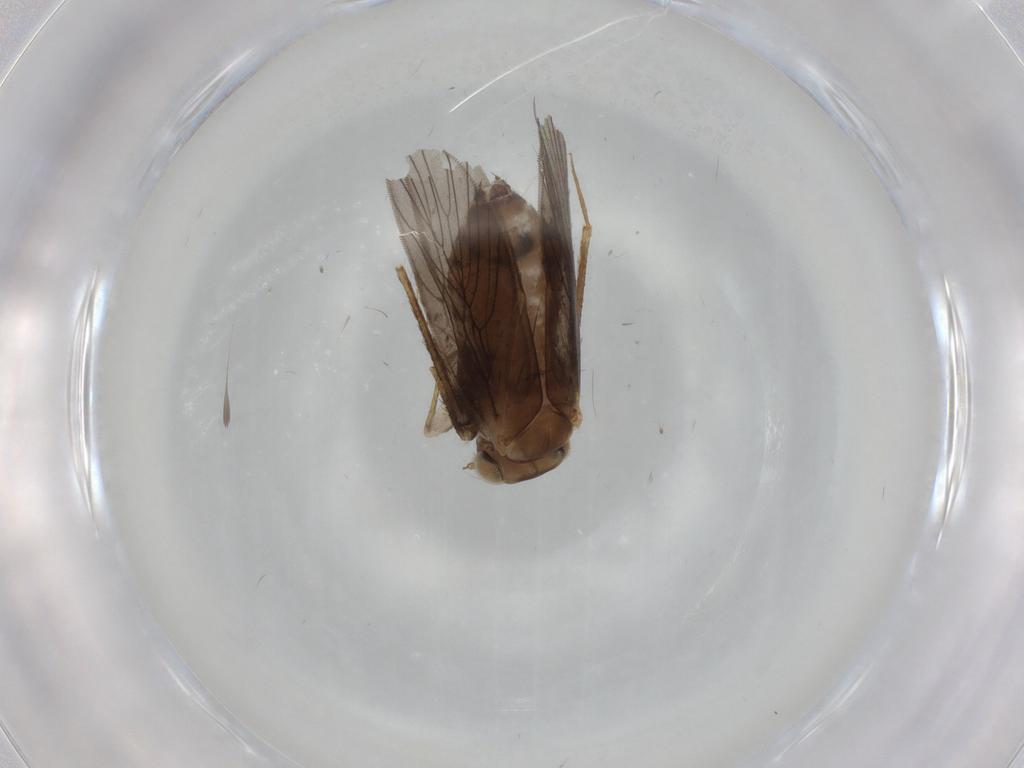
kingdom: Animalia
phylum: Arthropoda
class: Insecta
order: Psocodea
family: Lepidopsocidae
